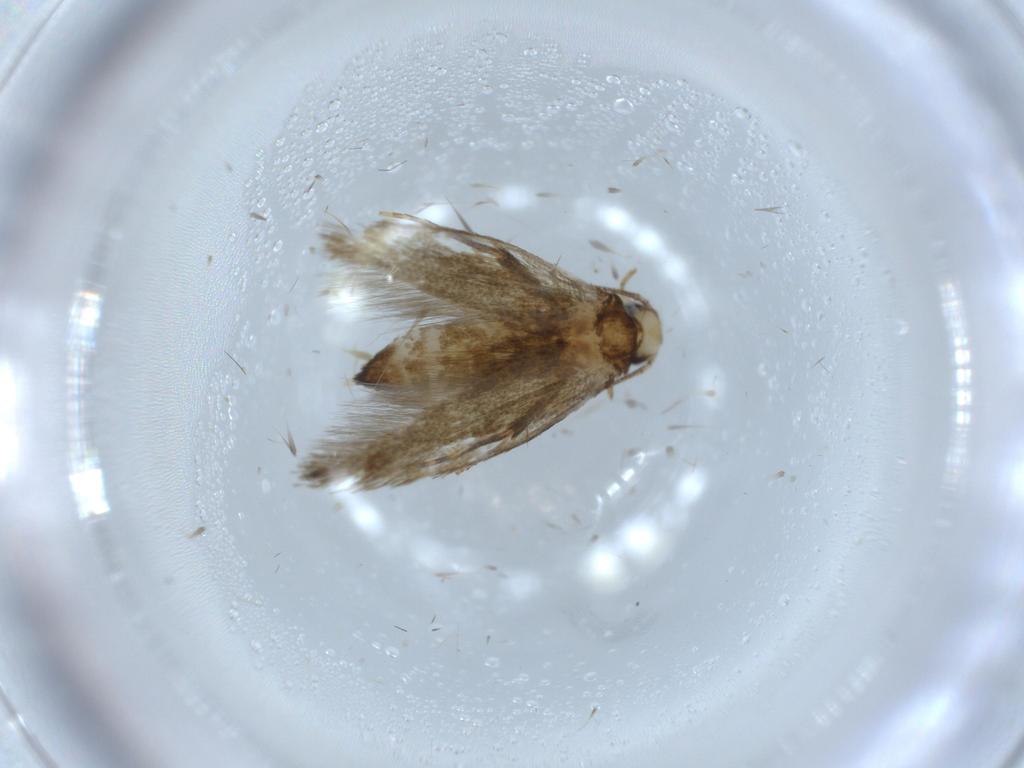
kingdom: Animalia
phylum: Arthropoda
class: Insecta
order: Lepidoptera
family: Tineidae
